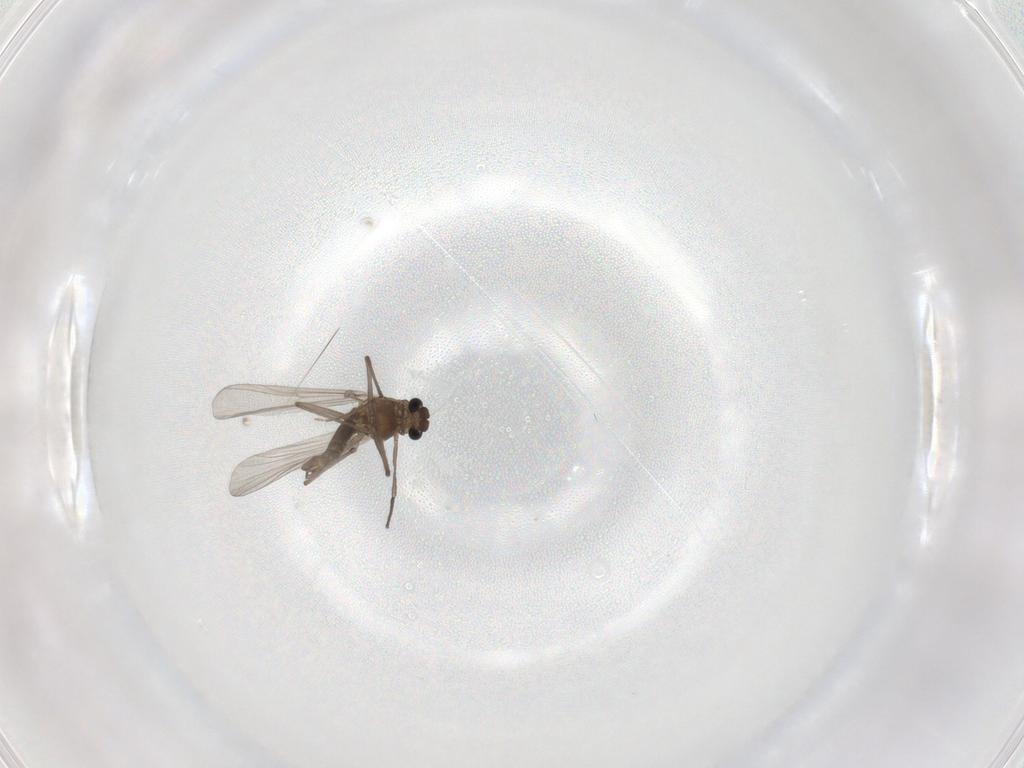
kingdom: Animalia
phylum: Arthropoda
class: Insecta
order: Diptera
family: Chironomidae
